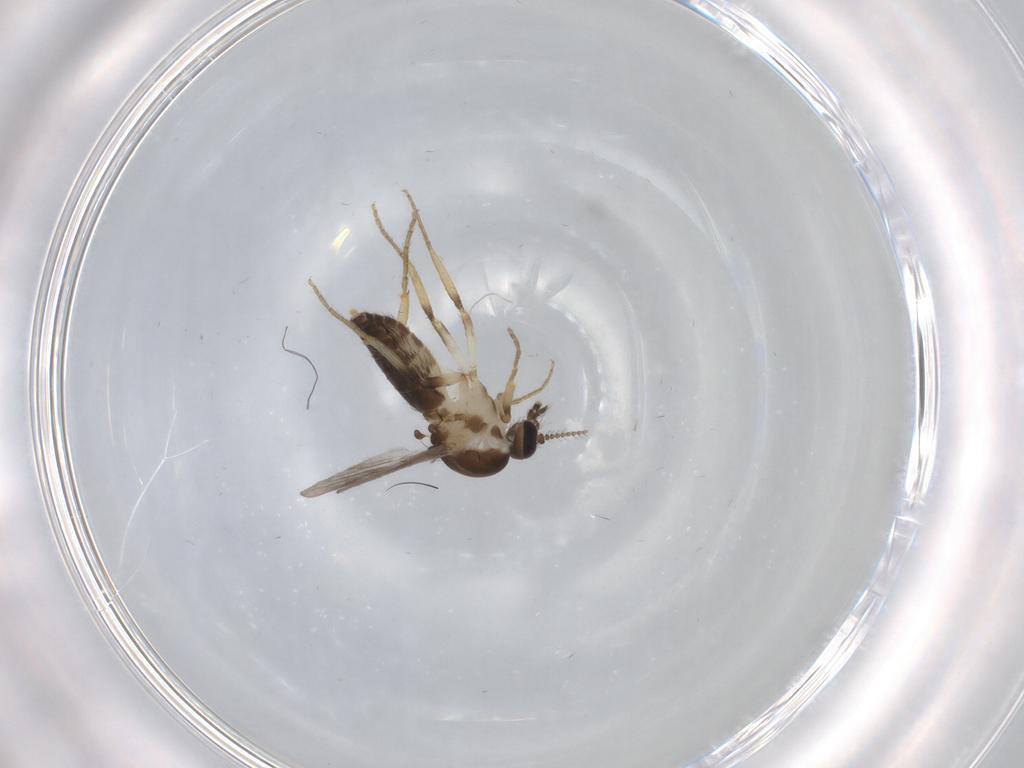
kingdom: Animalia
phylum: Arthropoda
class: Insecta
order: Diptera
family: Ceratopogonidae
